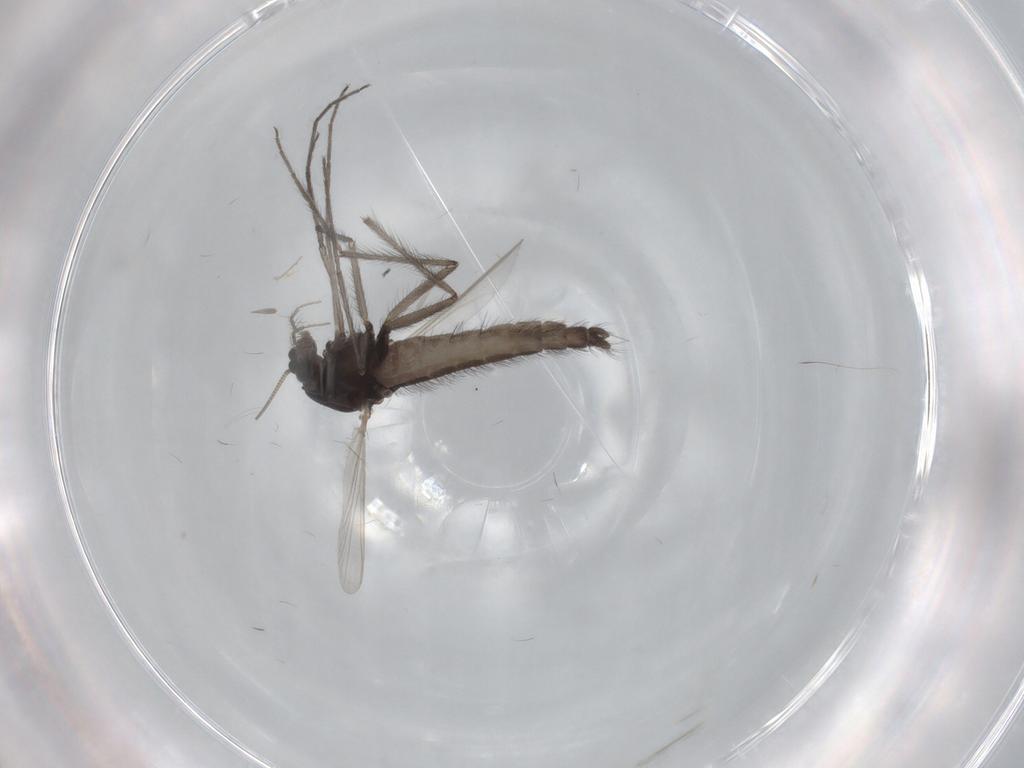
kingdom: Animalia
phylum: Arthropoda
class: Insecta
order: Diptera
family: Chironomidae
